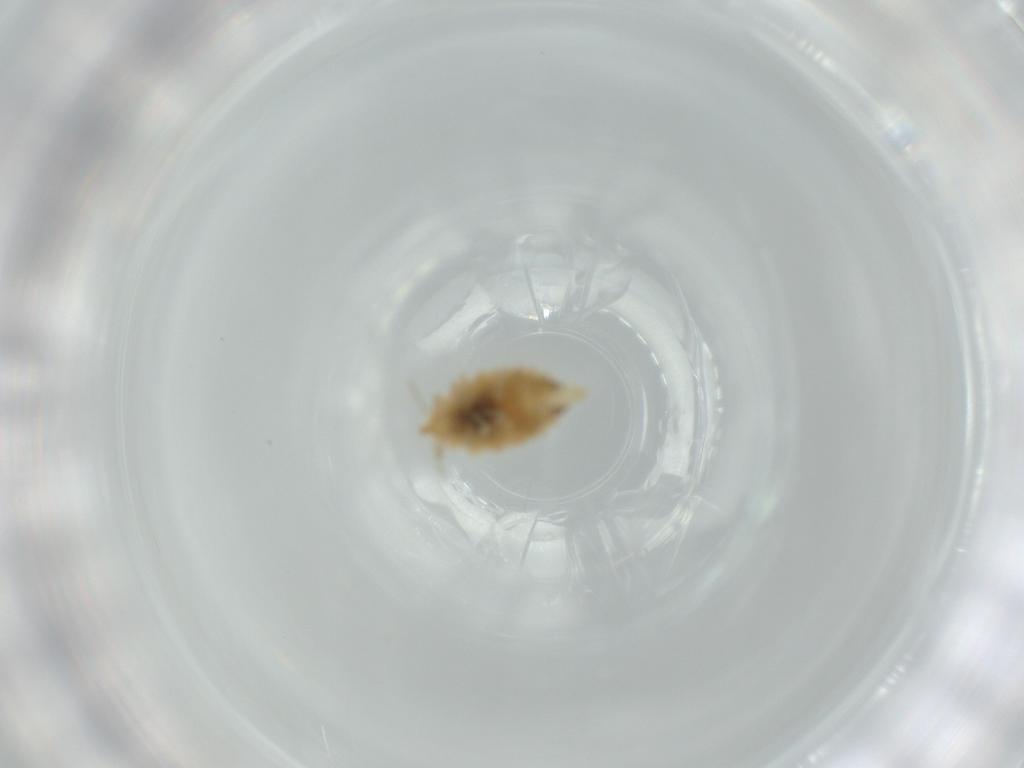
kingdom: Animalia
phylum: Arthropoda
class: Insecta
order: Neuroptera
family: Coniopterygidae
